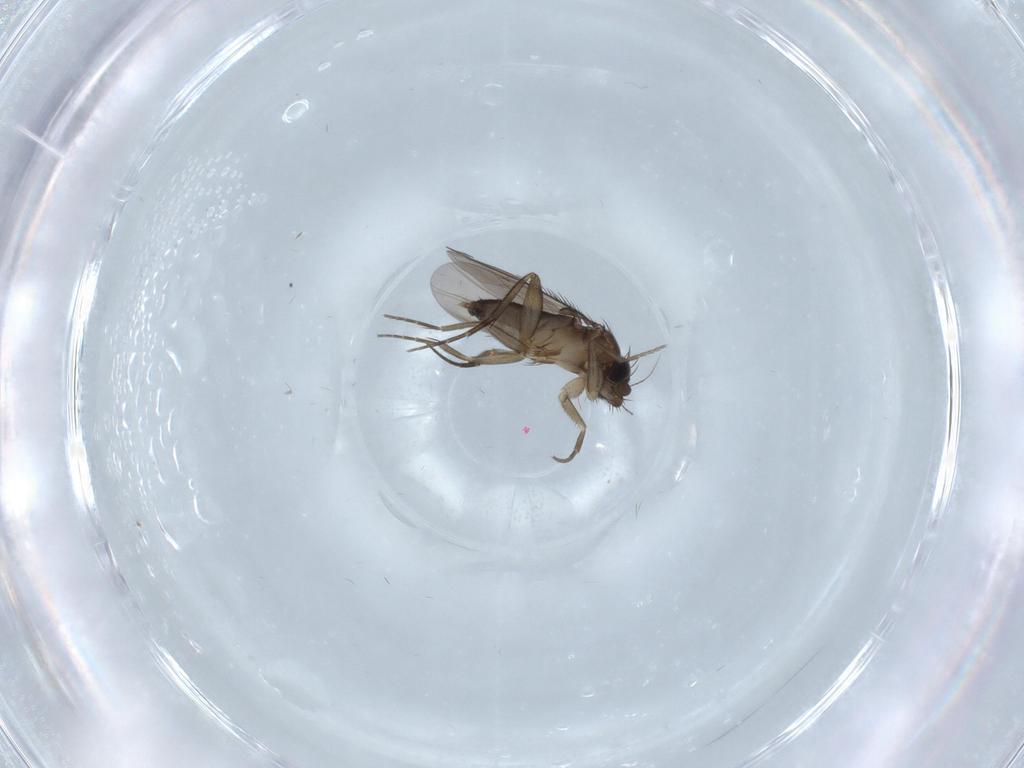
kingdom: Animalia
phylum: Arthropoda
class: Insecta
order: Diptera
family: Phoridae
